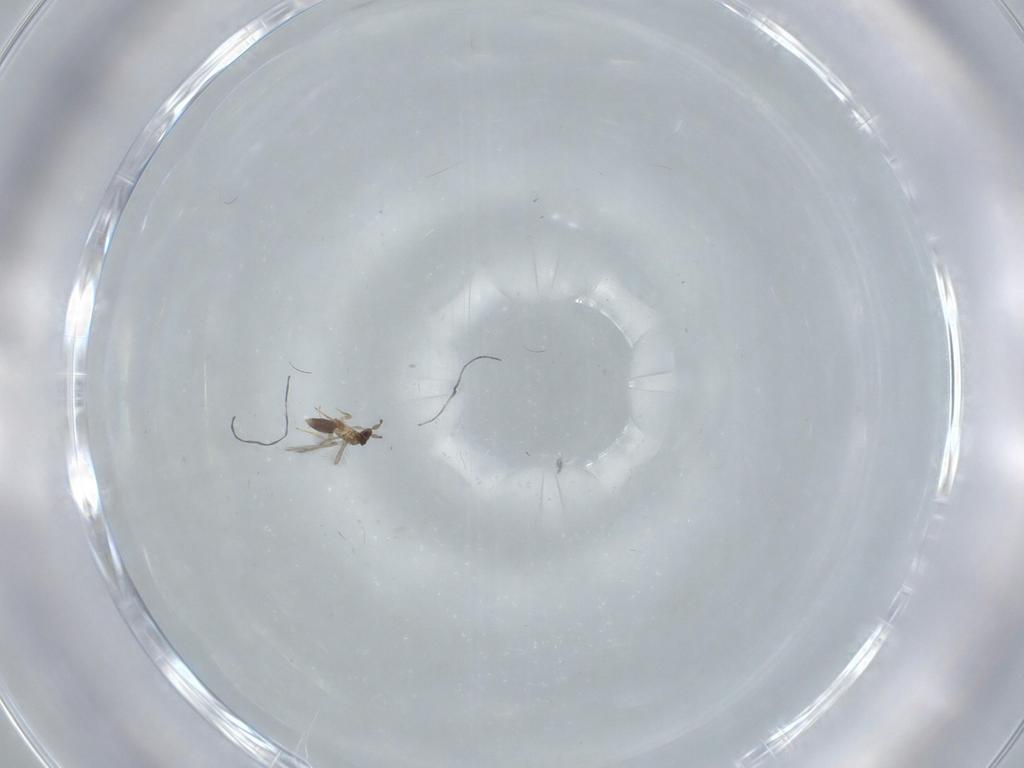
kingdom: Animalia
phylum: Arthropoda
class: Insecta
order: Hymenoptera
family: Mymaridae
